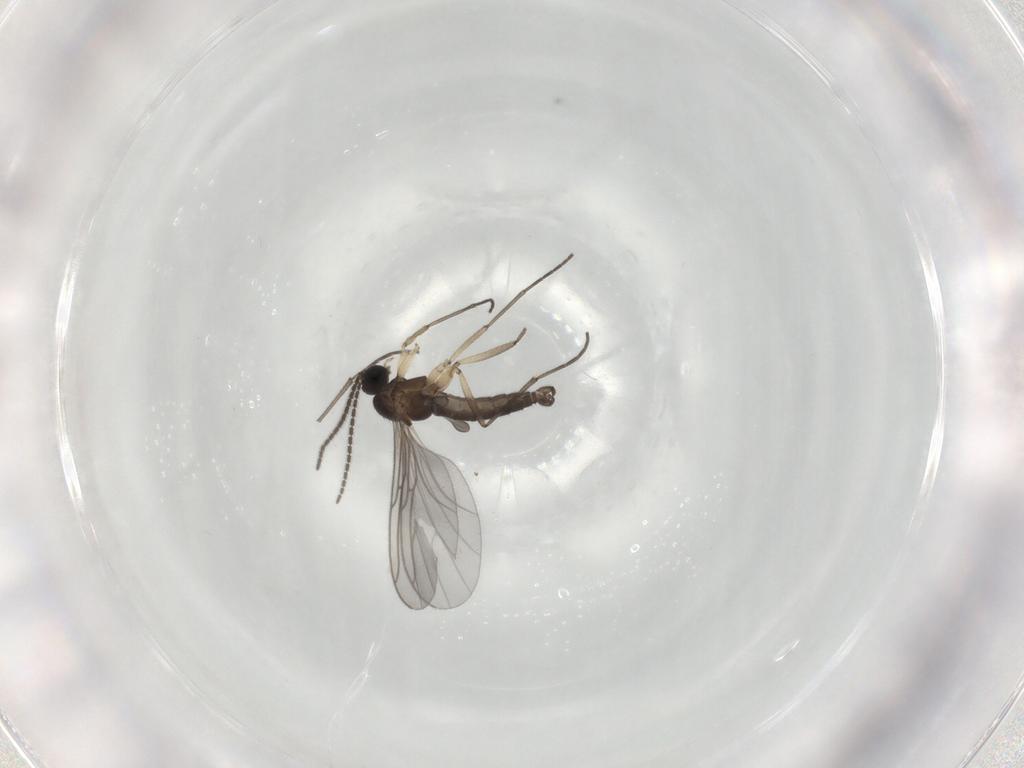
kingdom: Animalia
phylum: Arthropoda
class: Insecta
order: Diptera
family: Sciaridae
